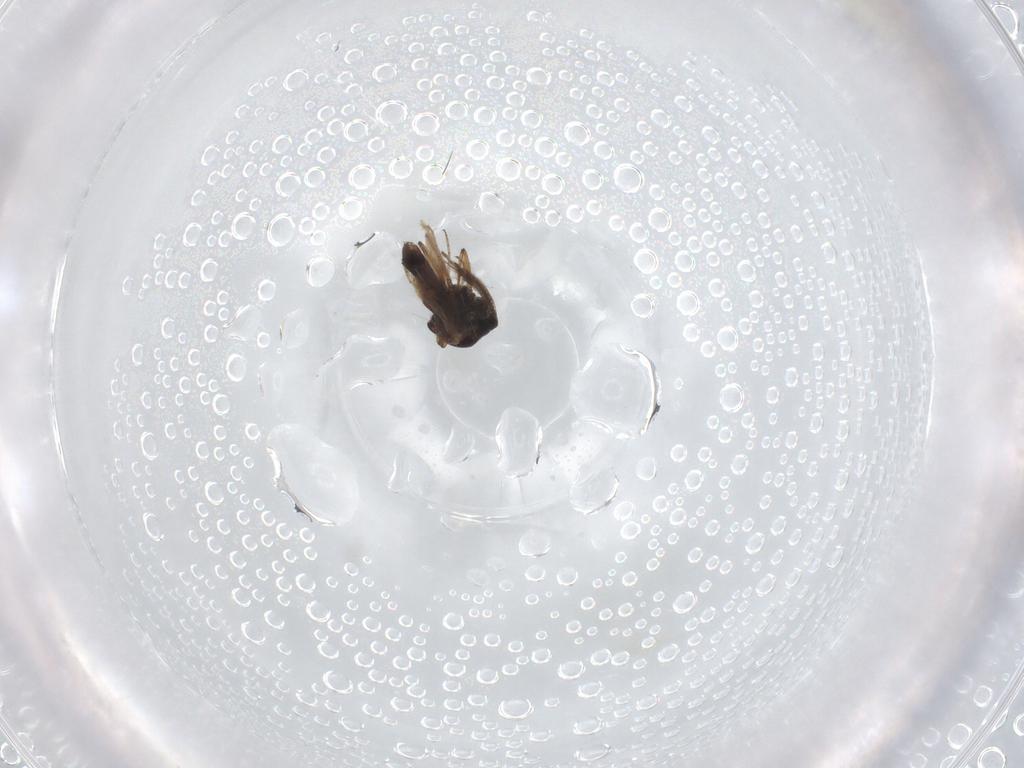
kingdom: Animalia
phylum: Arthropoda
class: Insecta
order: Diptera
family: Ceratopogonidae
